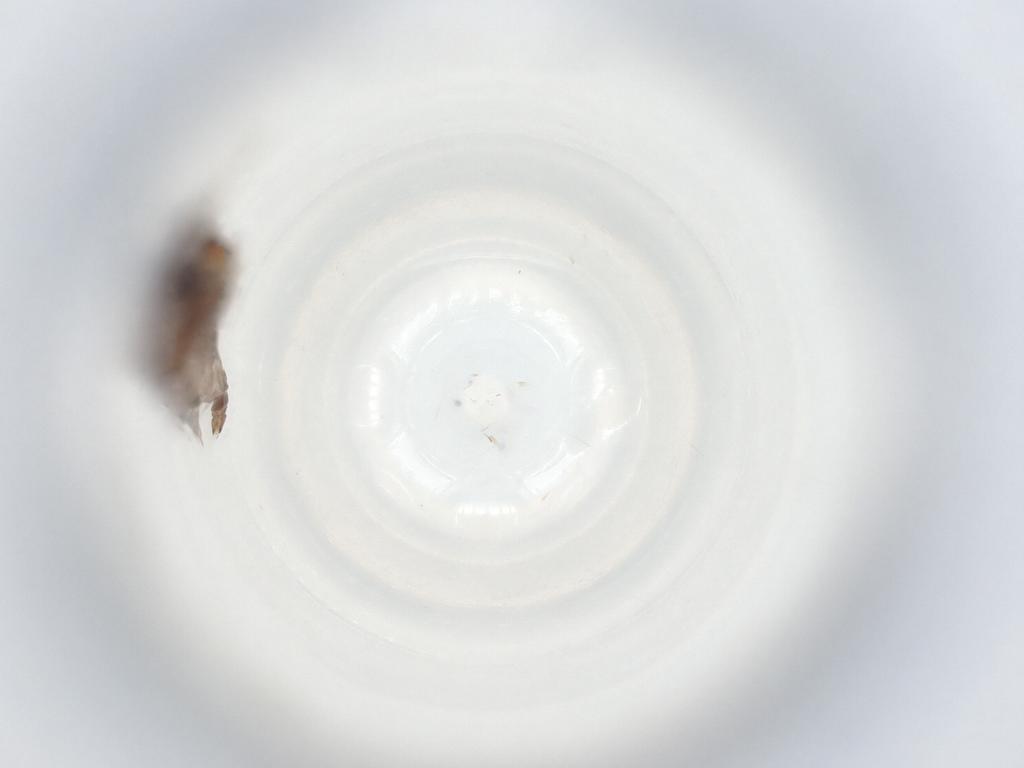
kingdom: Animalia
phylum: Arthropoda
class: Insecta
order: Diptera
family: Sciaridae
